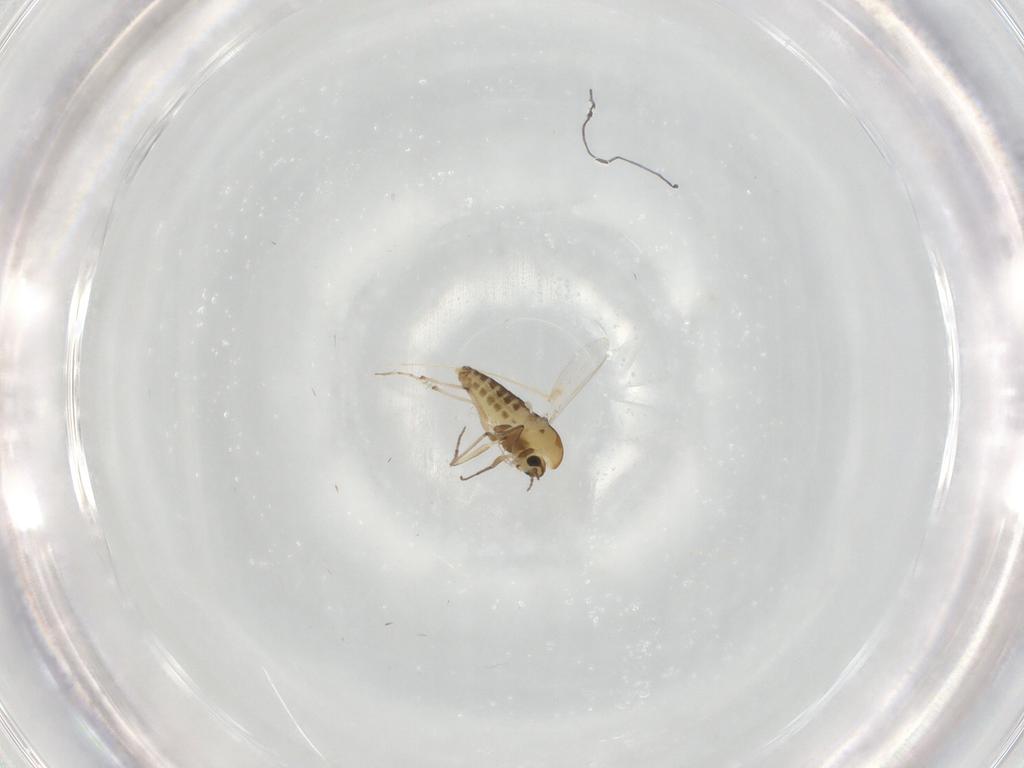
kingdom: Animalia
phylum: Arthropoda
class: Insecta
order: Diptera
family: Chironomidae
